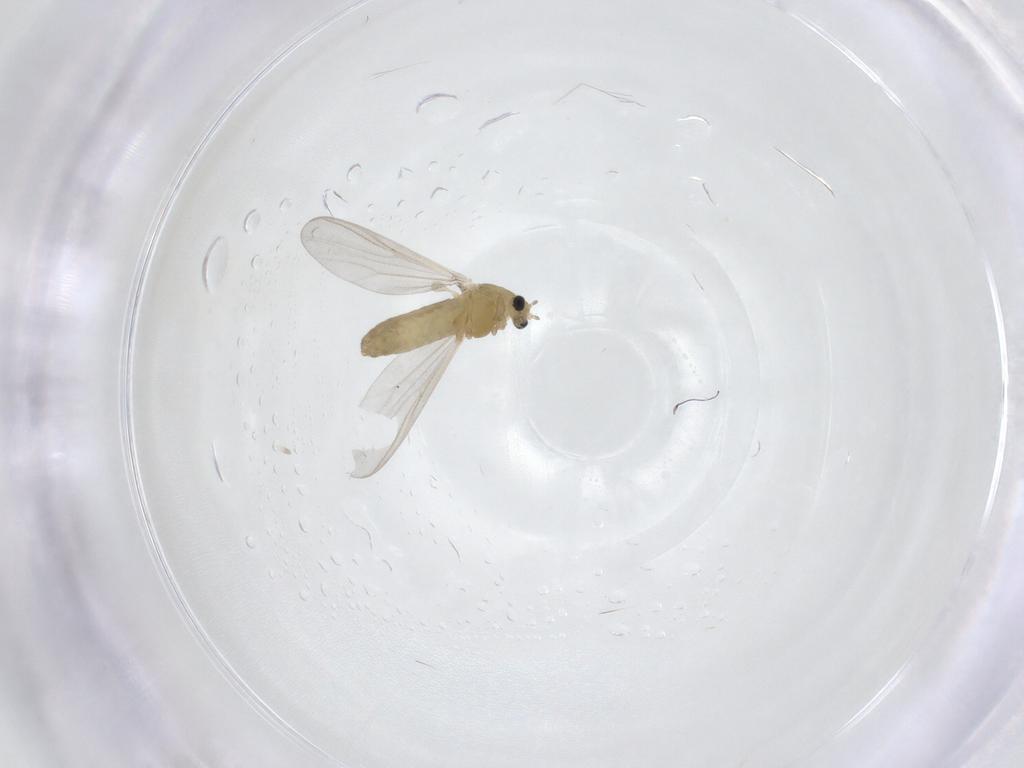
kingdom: Animalia
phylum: Arthropoda
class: Insecta
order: Diptera
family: Chironomidae
